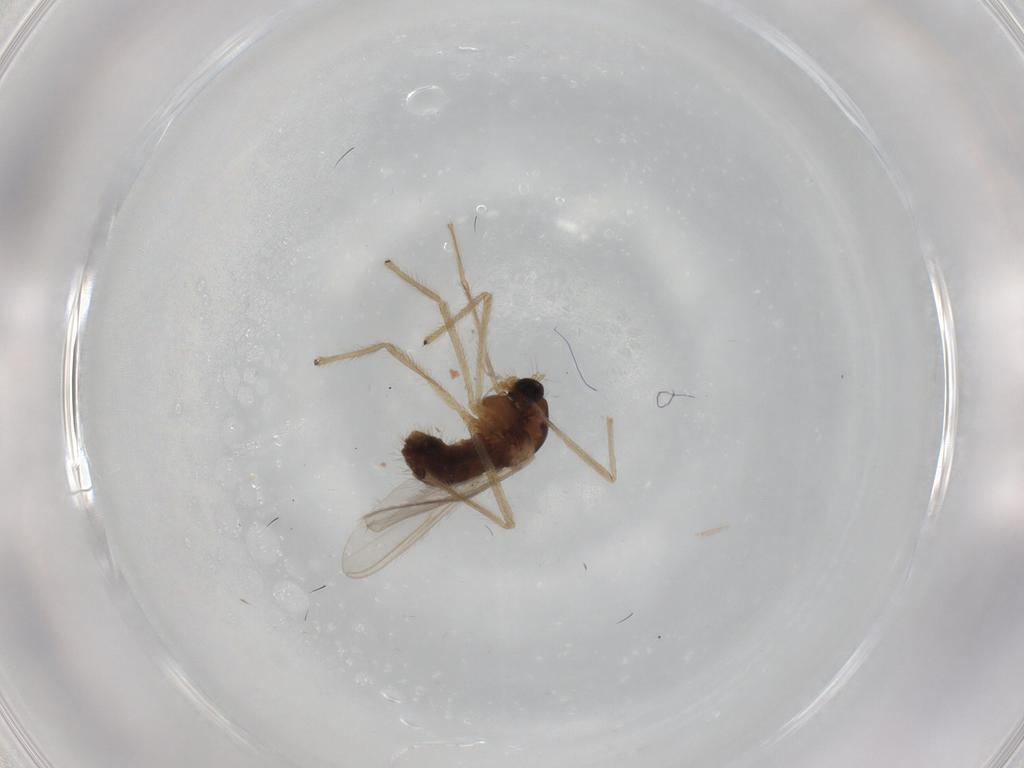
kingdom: Animalia
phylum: Arthropoda
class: Insecta
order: Diptera
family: Chironomidae
